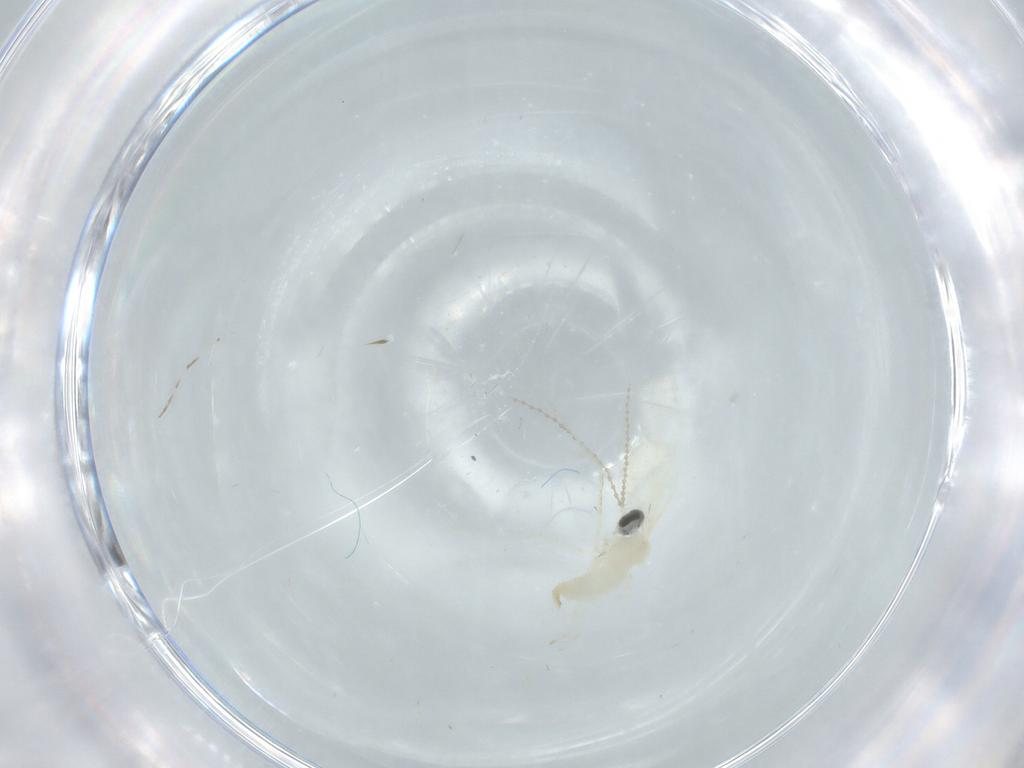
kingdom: Animalia
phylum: Arthropoda
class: Insecta
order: Diptera
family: Cecidomyiidae
